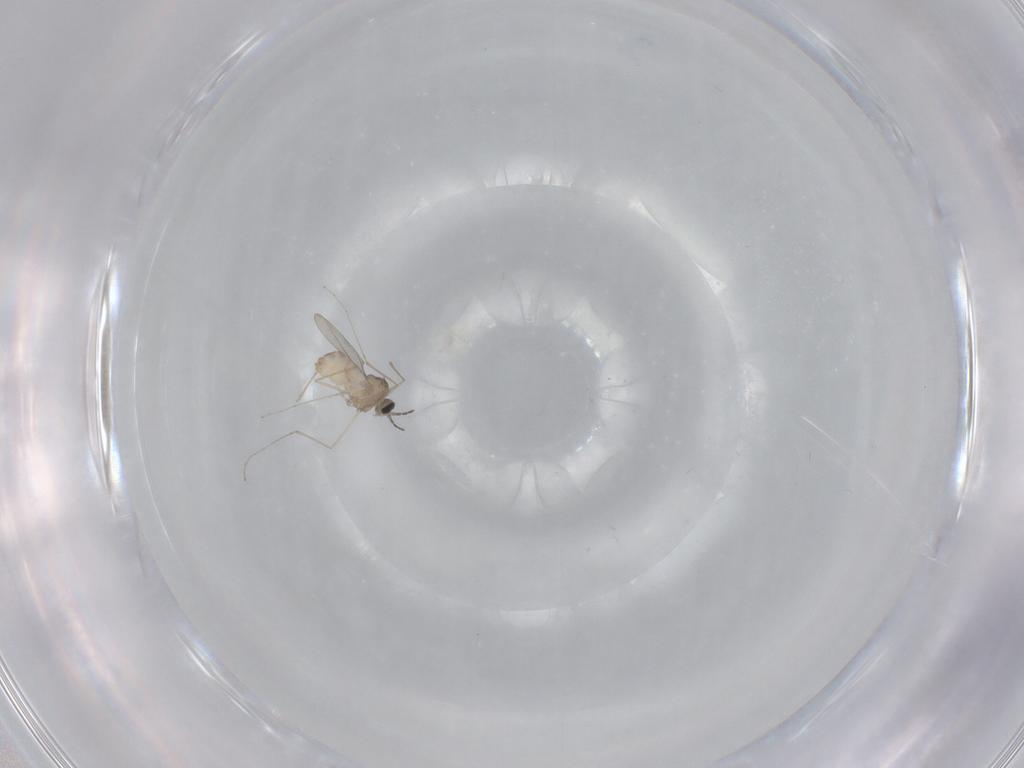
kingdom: Animalia
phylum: Arthropoda
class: Insecta
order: Diptera
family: Cecidomyiidae
